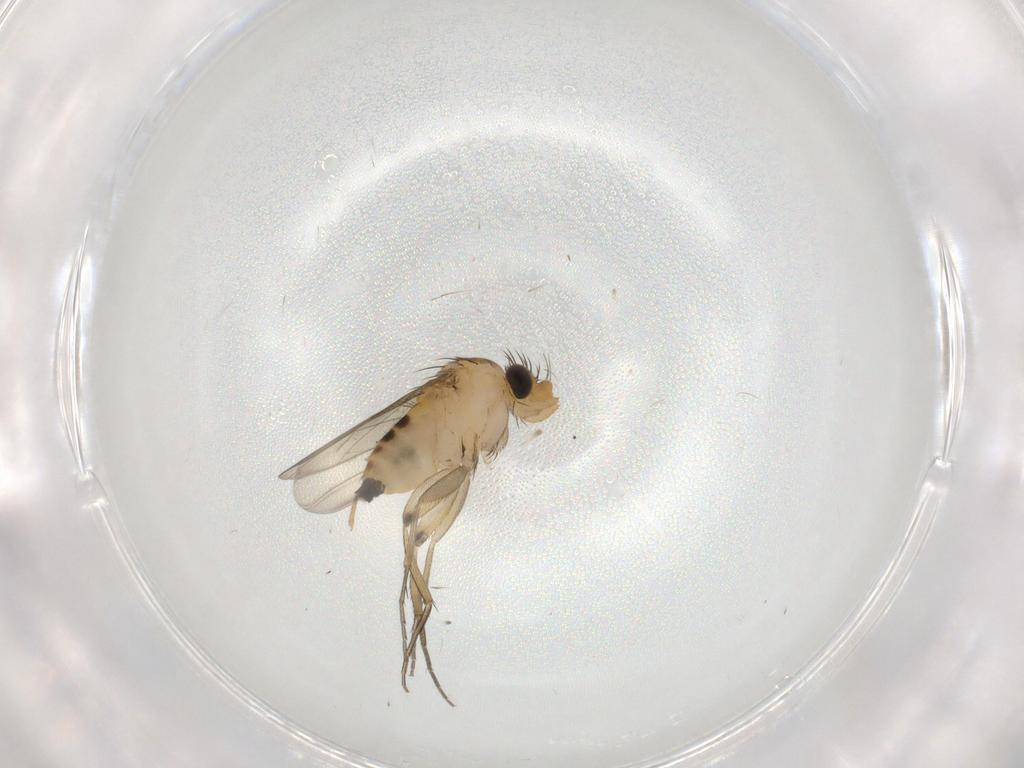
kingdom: Animalia
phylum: Arthropoda
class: Insecta
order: Diptera
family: Phoridae
